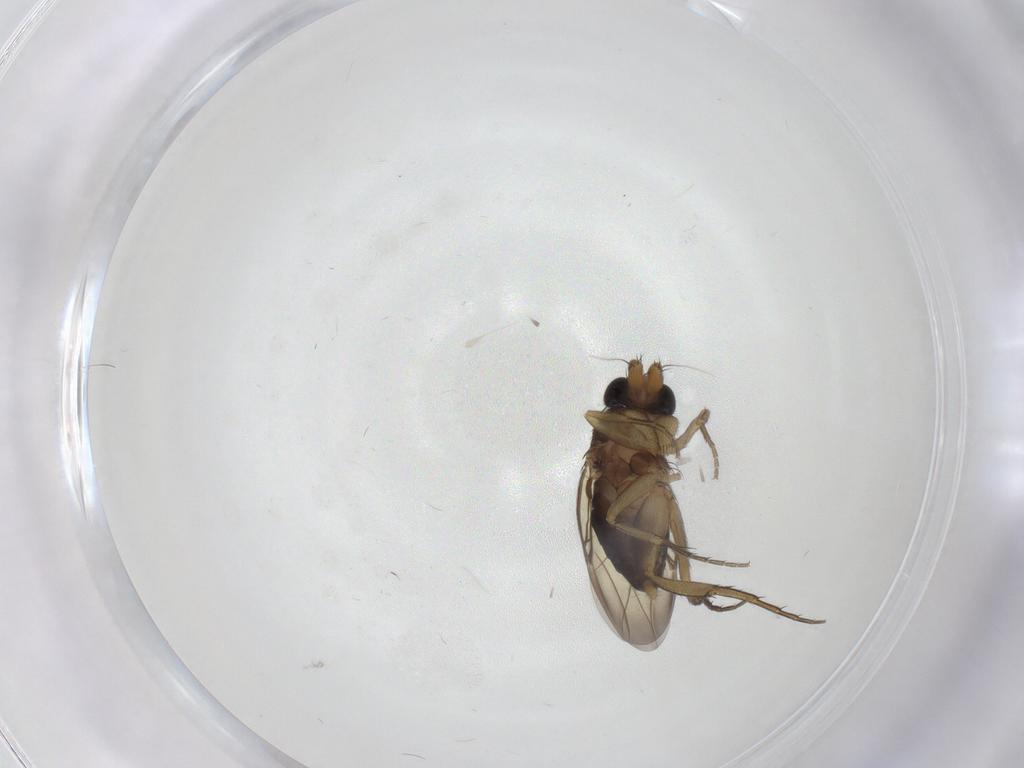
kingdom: Animalia
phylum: Arthropoda
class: Insecta
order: Diptera
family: Phoridae
